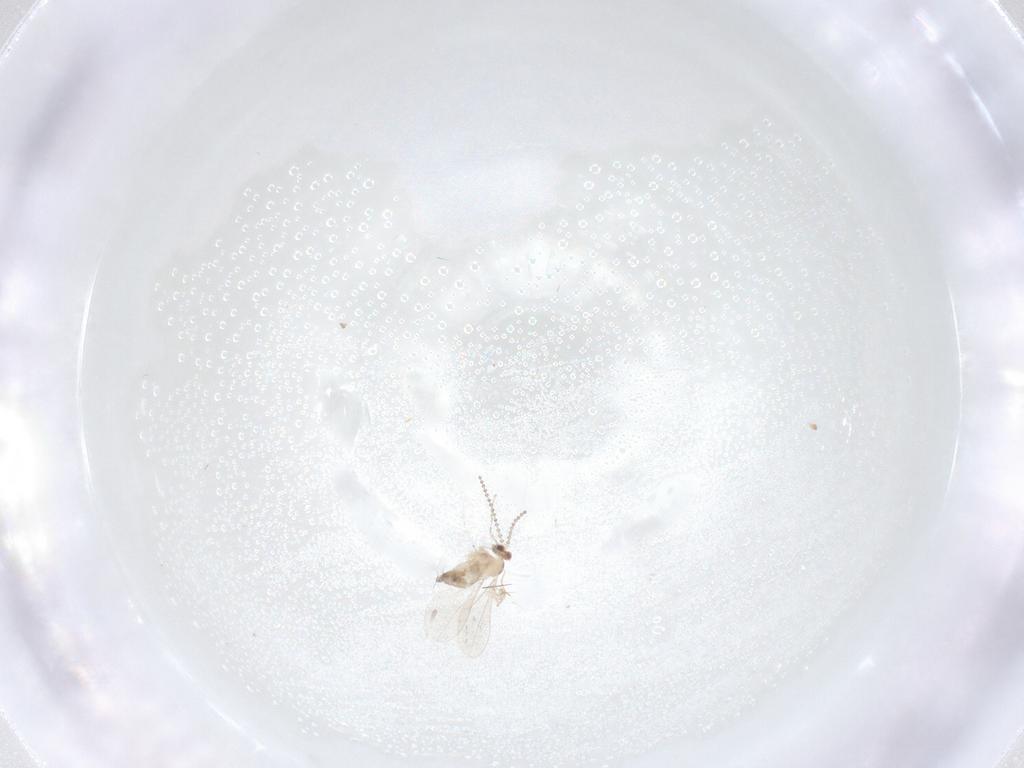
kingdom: Animalia
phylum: Arthropoda
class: Insecta
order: Diptera
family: Cecidomyiidae
